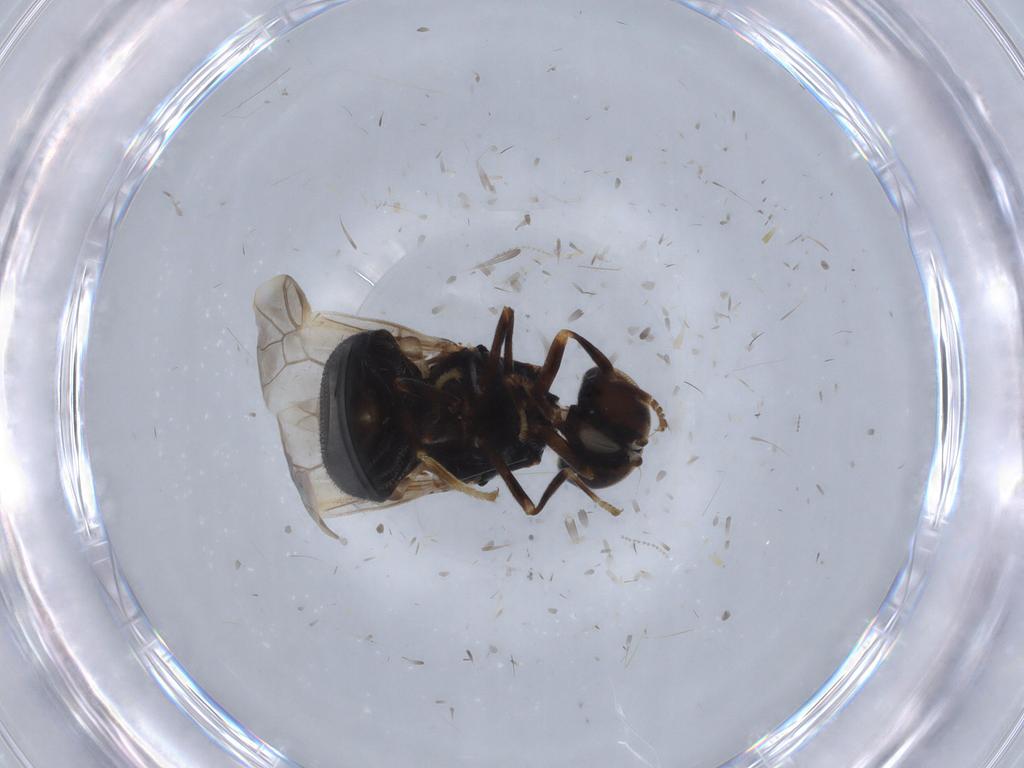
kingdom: Animalia
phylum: Arthropoda
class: Insecta
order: Diptera
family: Stratiomyidae
